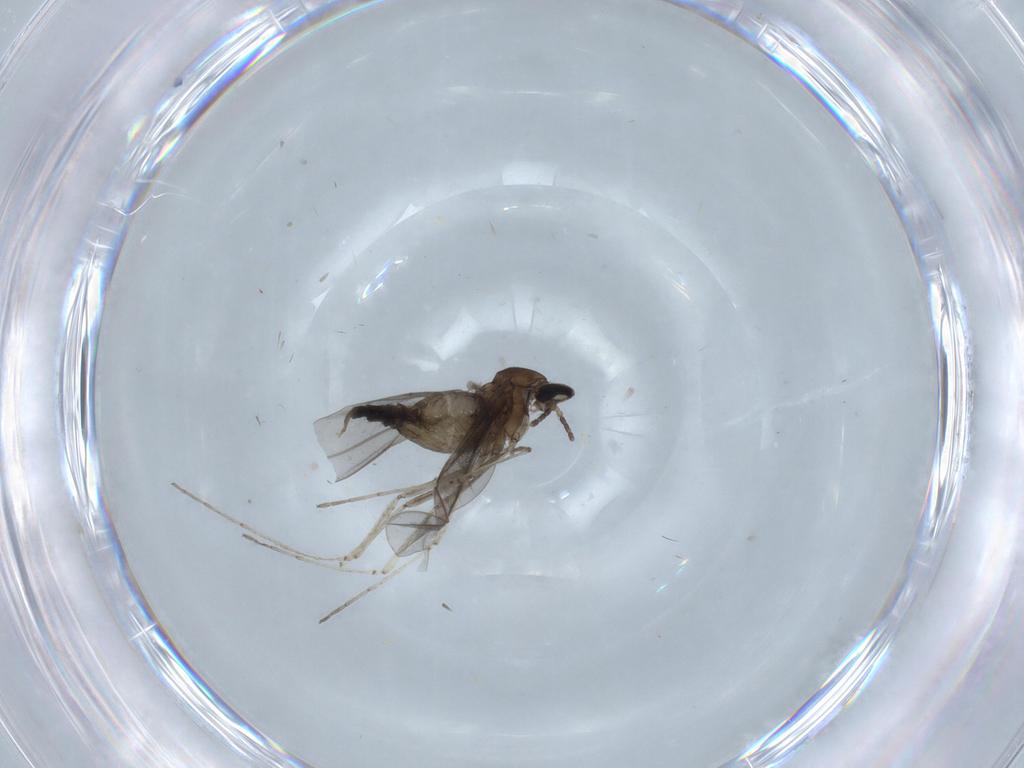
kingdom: Animalia
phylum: Arthropoda
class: Insecta
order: Diptera
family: Cecidomyiidae
